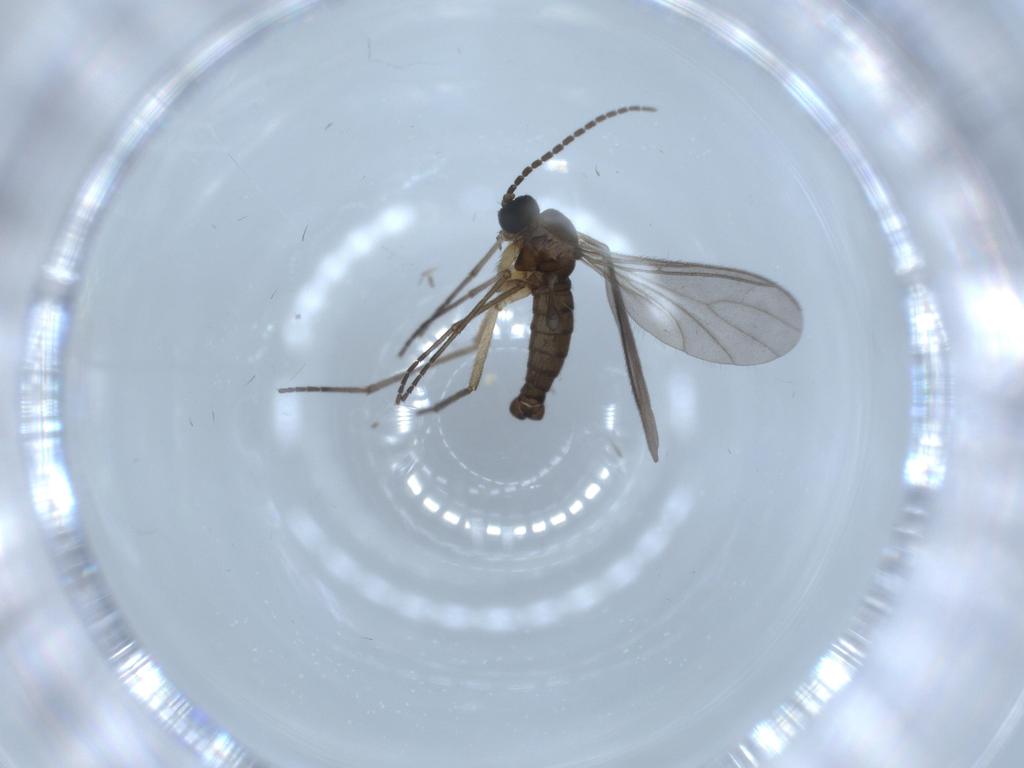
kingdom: Animalia
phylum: Arthropoda
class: Insecta
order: Diptera
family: Sciaridae
